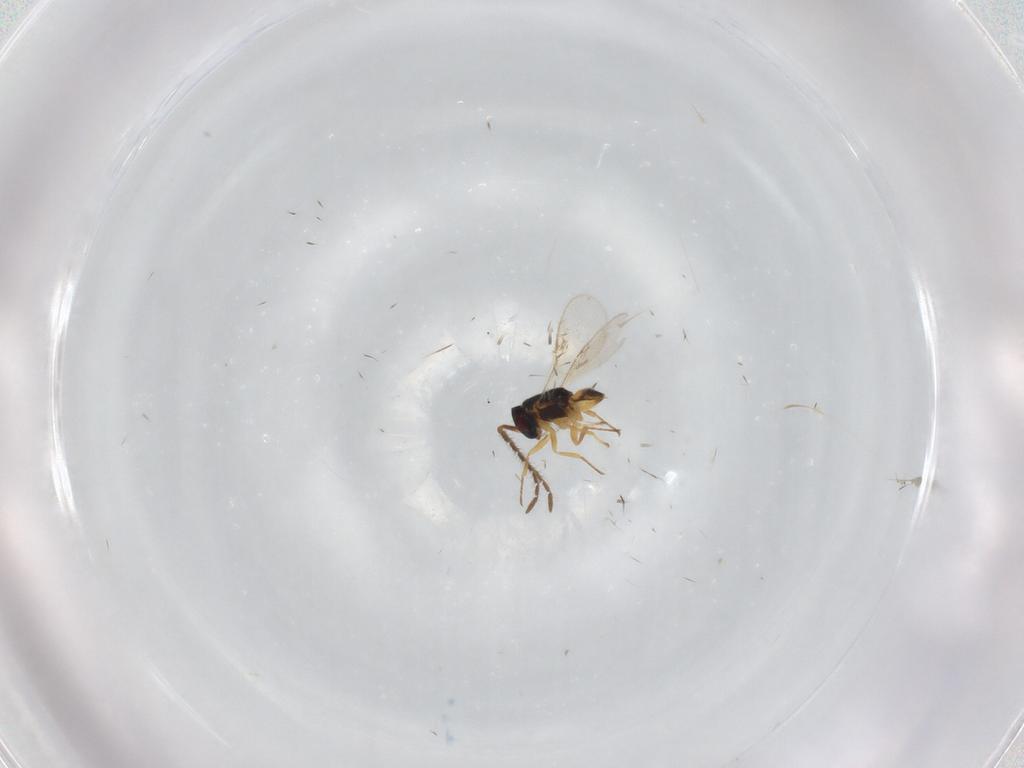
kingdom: Animalia
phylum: Arthropoda
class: Insecta
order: Hymenoptera
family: Encyrtidae
